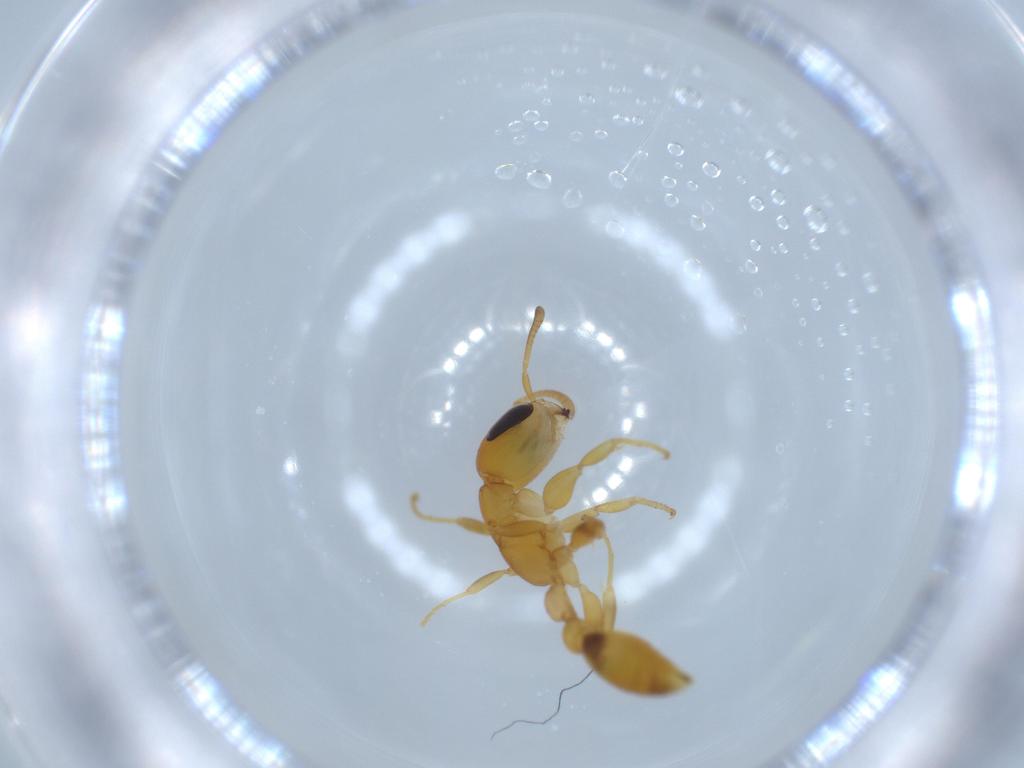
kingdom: Animalia
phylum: Arthropoda
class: Insecta
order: Hymenoptera
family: Formicidae
